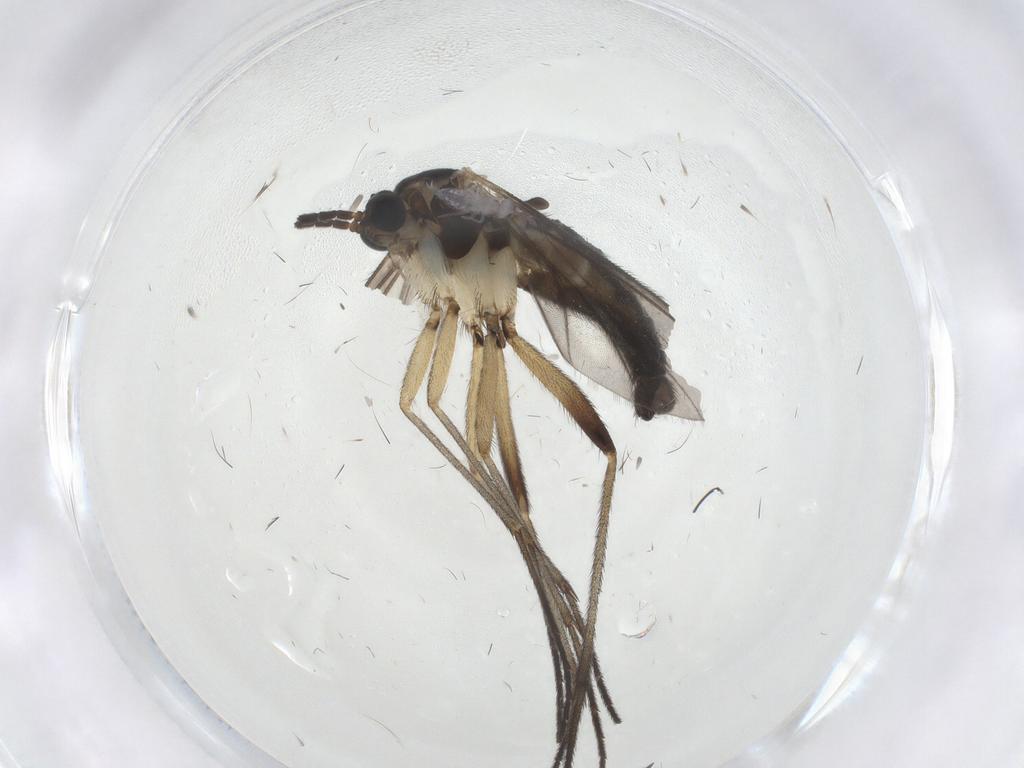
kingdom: Animalia
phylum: Arthropoda
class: Insecta
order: Diptera
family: Sciaridae
